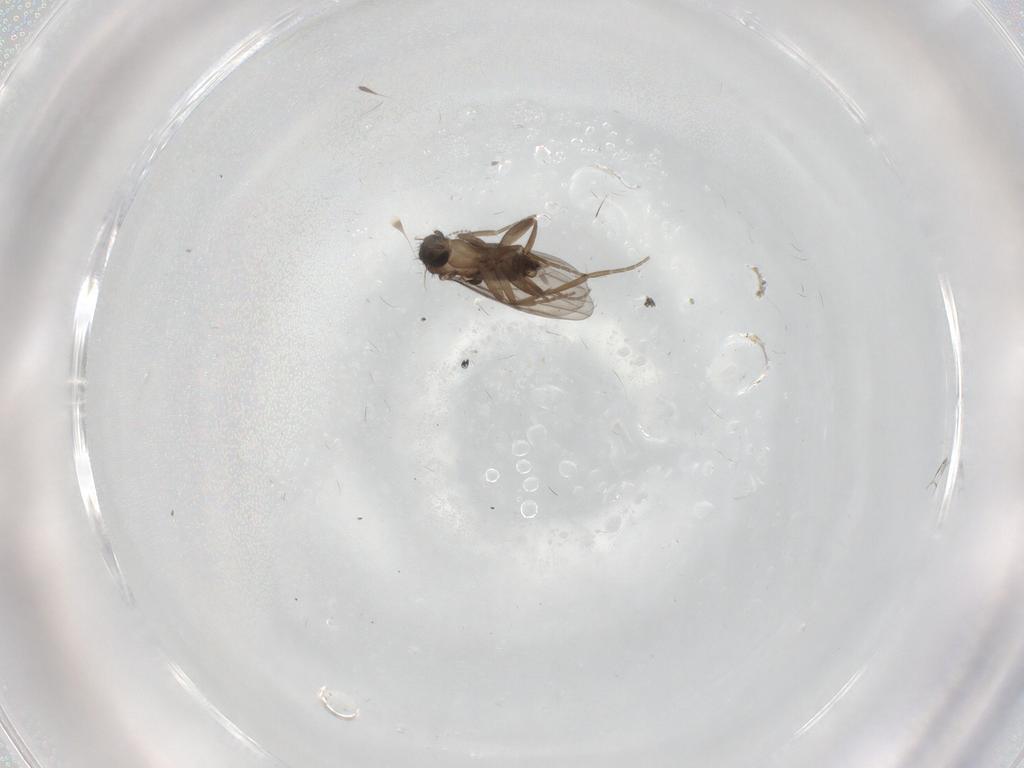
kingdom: Animalia
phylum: Arthropoda
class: Insecta
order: Diptera
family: Cecidomyiidae
